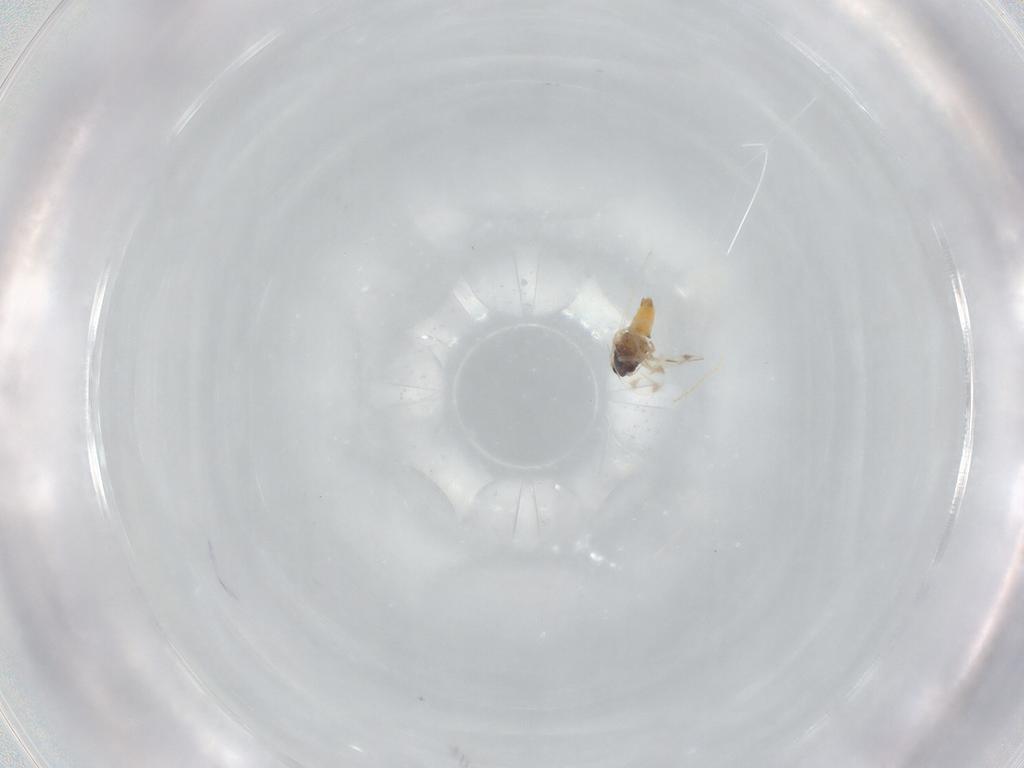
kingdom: Animalia
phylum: Arthropoda
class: Insecta
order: Hemiptera
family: Aleyrodidae
